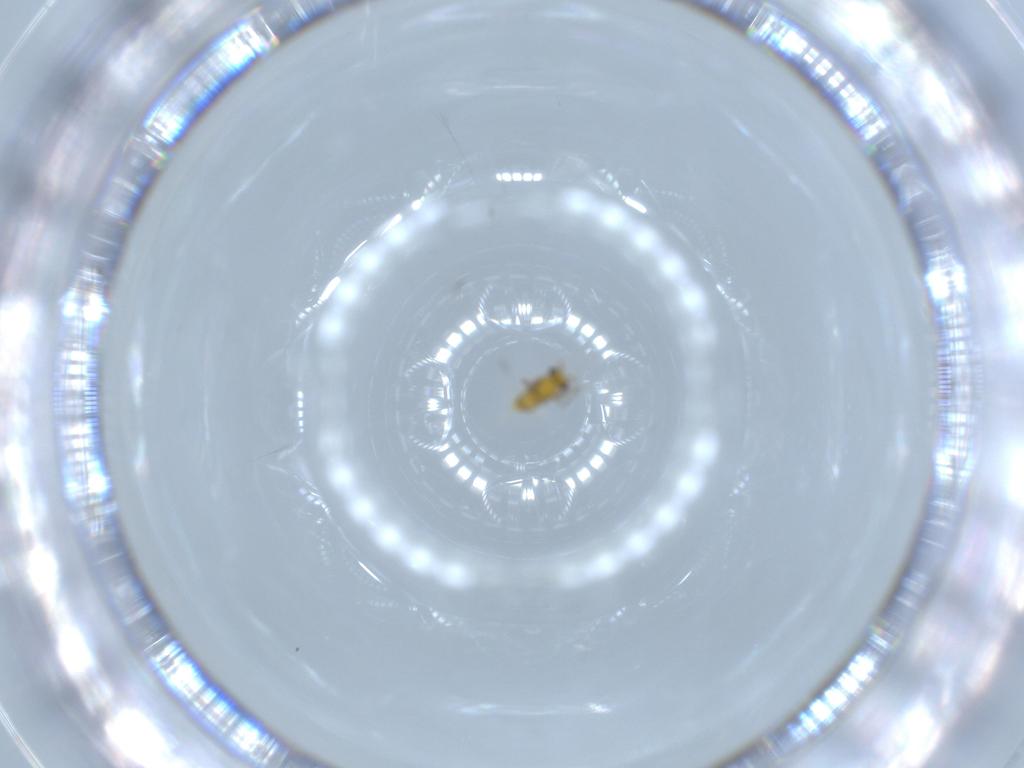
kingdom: Animalia
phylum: Arthropoda
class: Insecta
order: Hymenoptera
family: Aphelinidae
